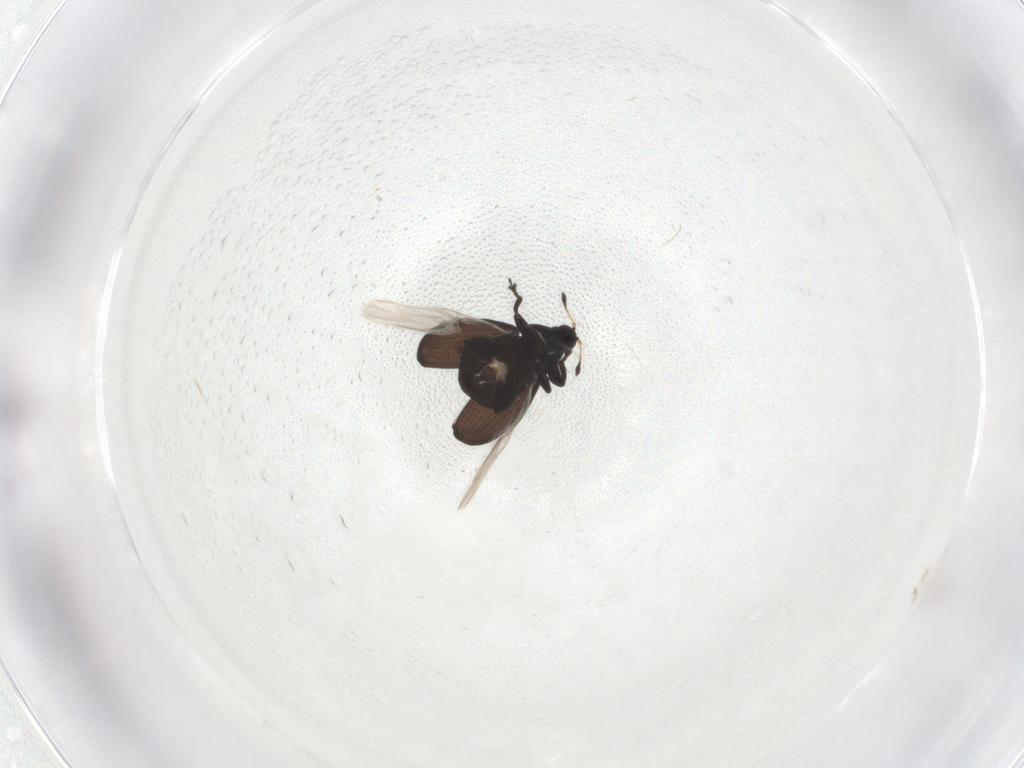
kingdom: Animalia
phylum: Arthropoda
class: Insecta
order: Coleoptera
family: Curculionidae
